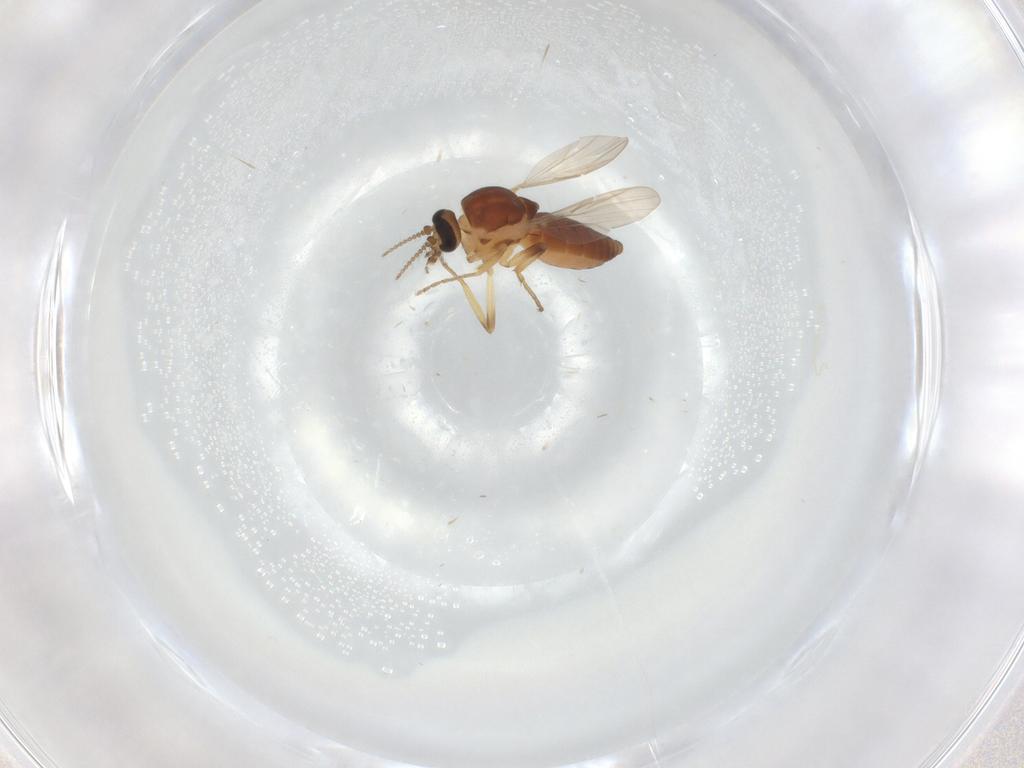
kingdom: Animalia
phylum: Arthropoda
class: Insecta
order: Diptera
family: Ceratopogonidae
